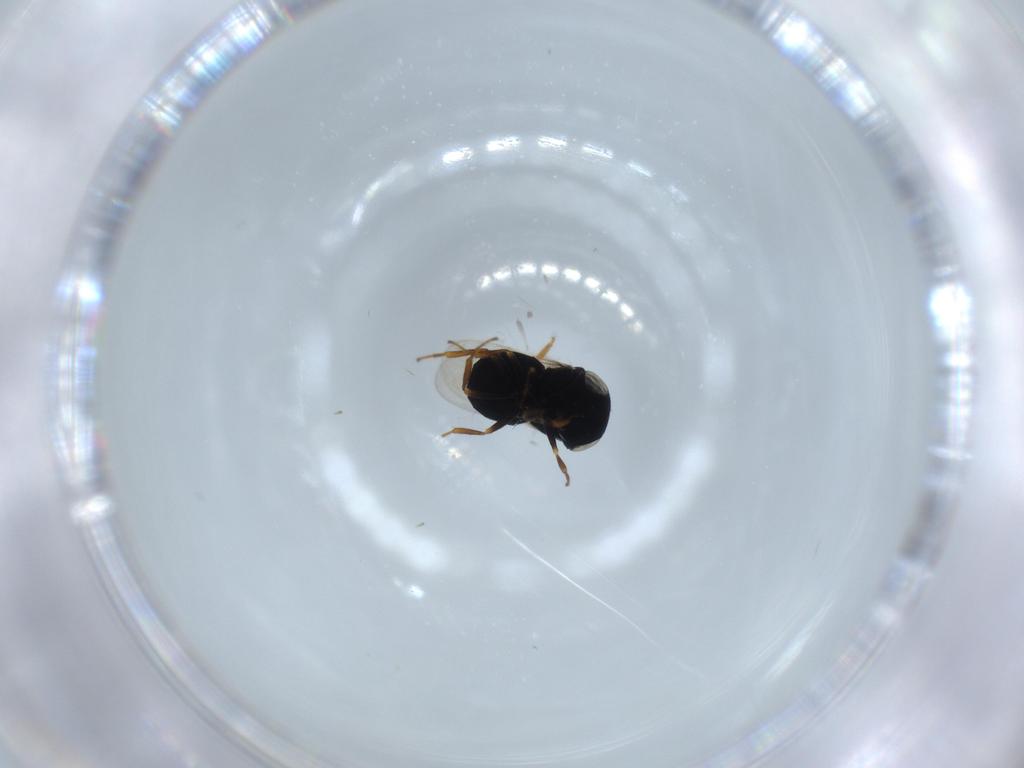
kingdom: Animalia
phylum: Arthropoda
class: Insecta
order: Hymenoptera
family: Scelionidae
